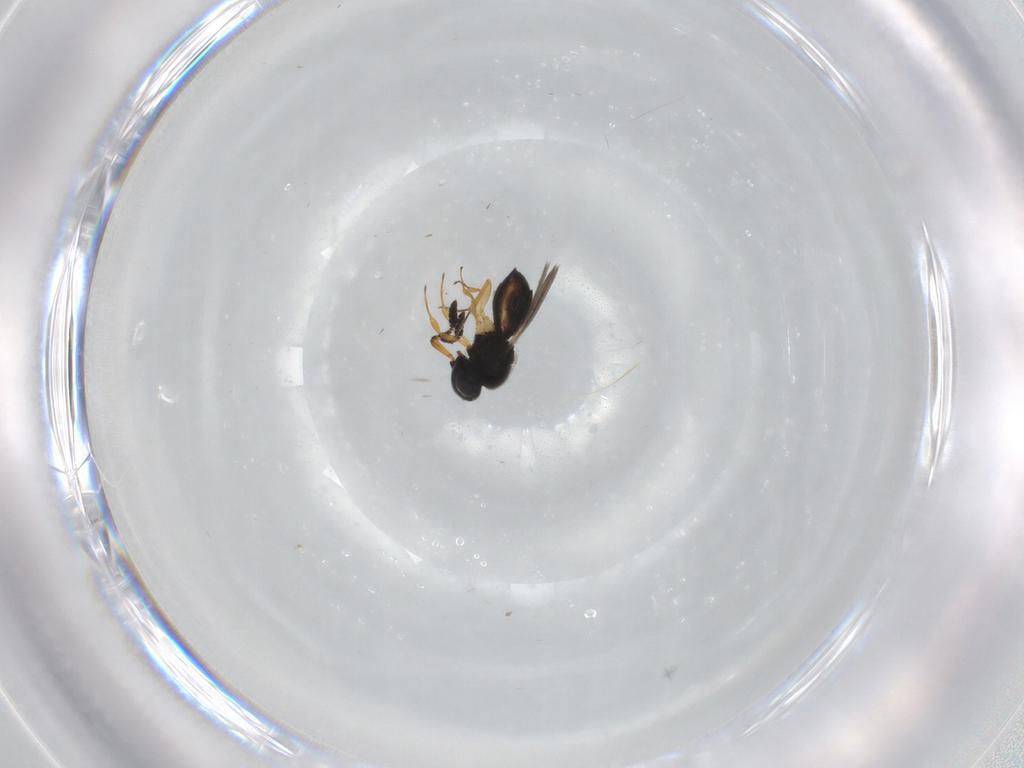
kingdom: Animalia
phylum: Arthropoda
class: Insecta
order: Hymenoptera
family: Scelionidae
